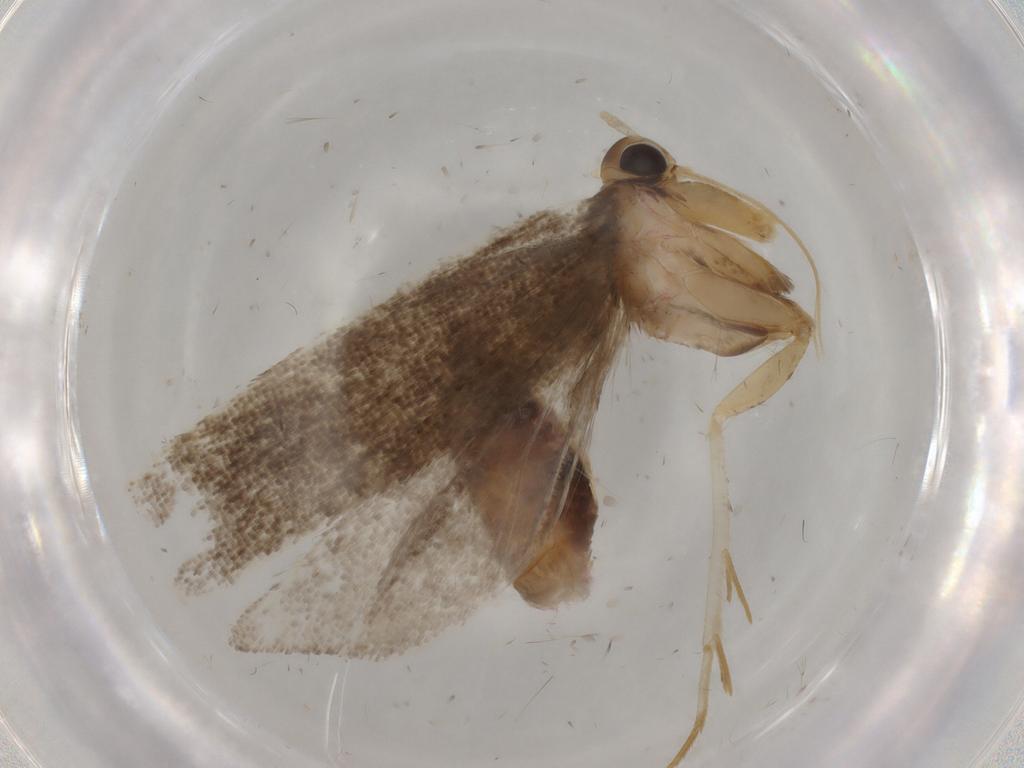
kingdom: Animalia
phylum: Arthropoda
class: Insecta
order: Lepidoptera
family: Lecithoceridae
